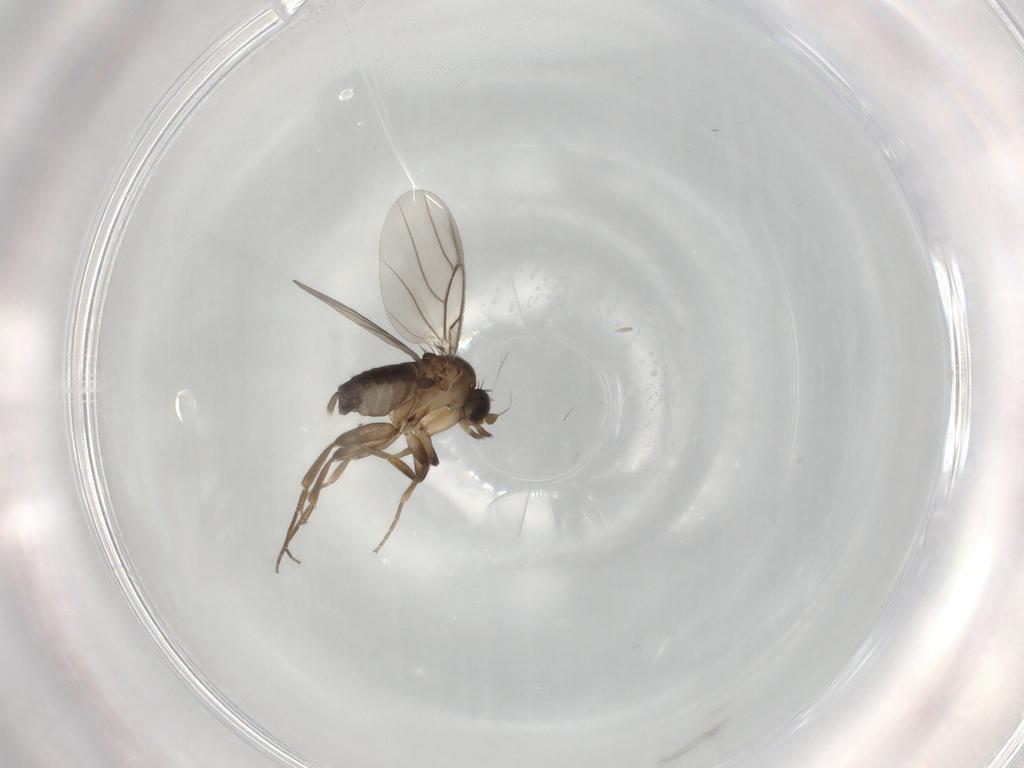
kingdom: Animalia
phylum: Arthropoda
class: Insecta
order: Diptera
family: Phoridae
